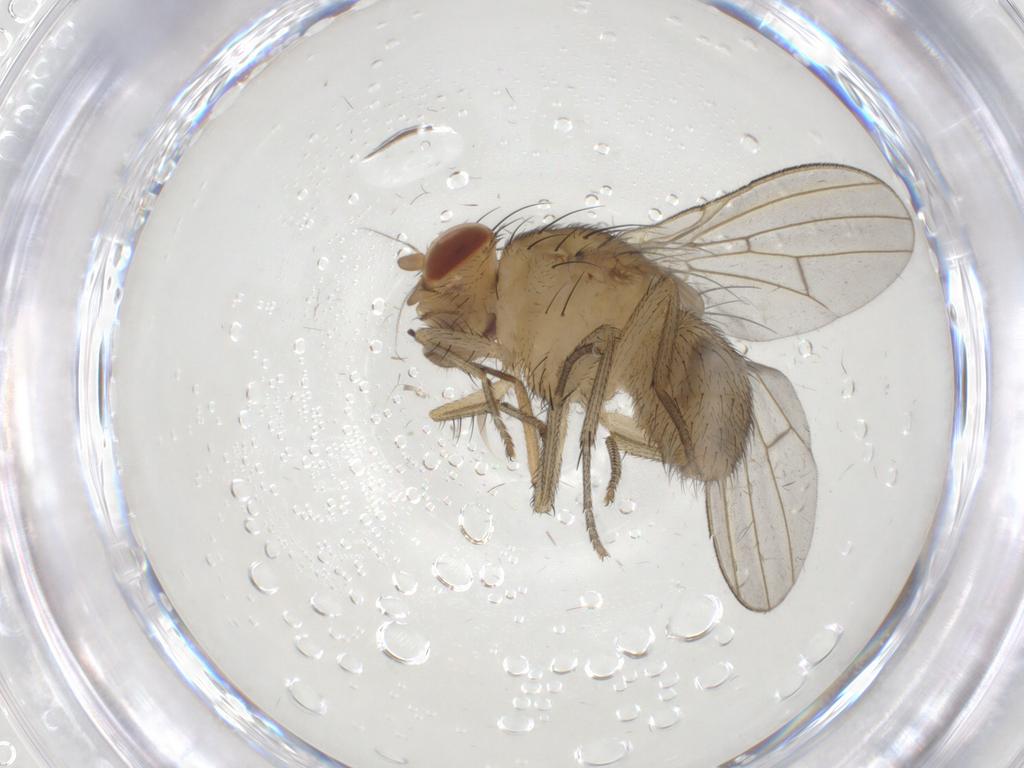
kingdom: Animalia
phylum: Arthropoda
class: Insecta
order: Diptera
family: Lauxaniidae
